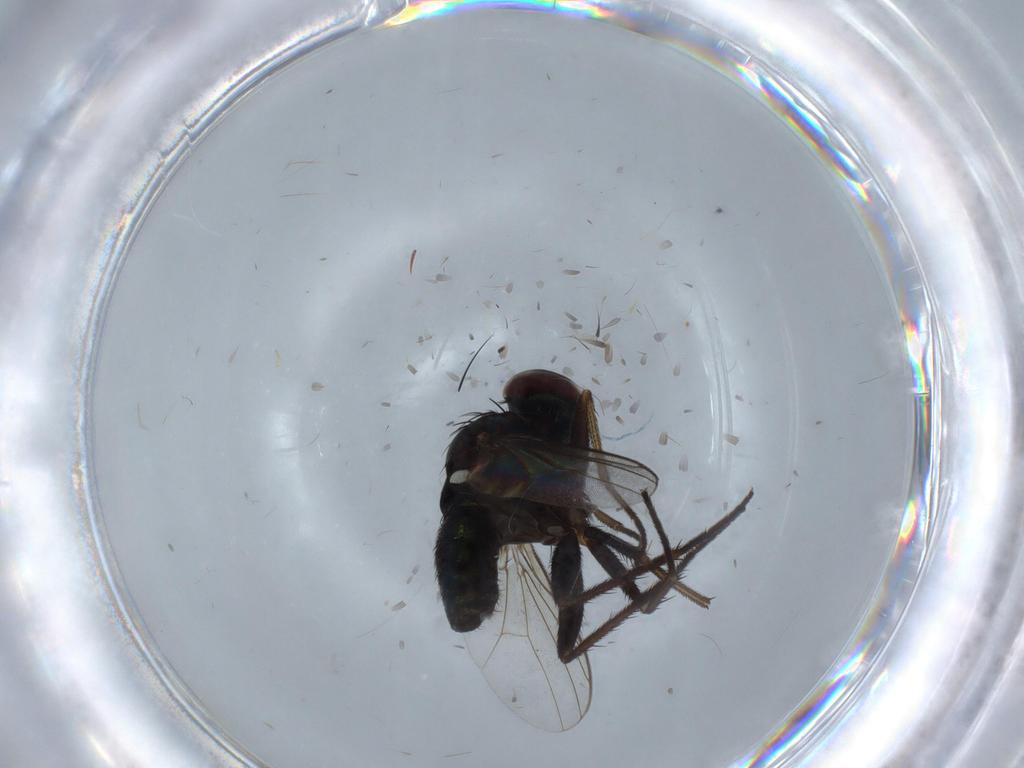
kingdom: Animalia
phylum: Arthropoda
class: Insecta
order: Diptera
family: Dolichopodidae
